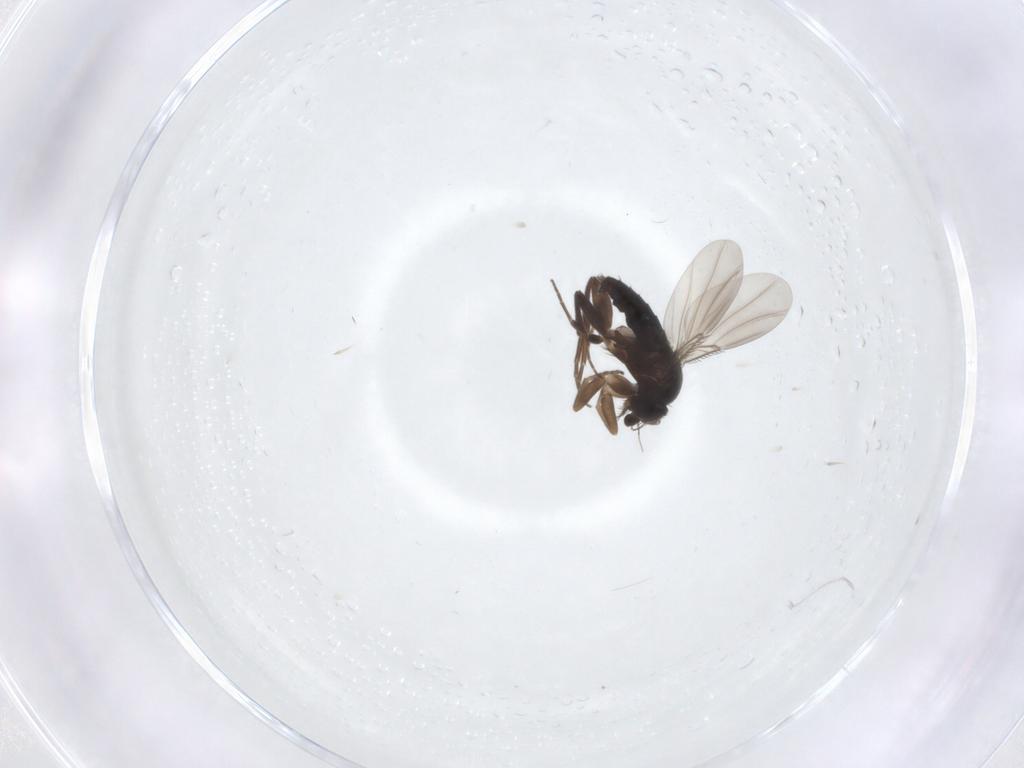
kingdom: Animalia
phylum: Arthropoda
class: Insecta
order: Diptera
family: Phoridae
